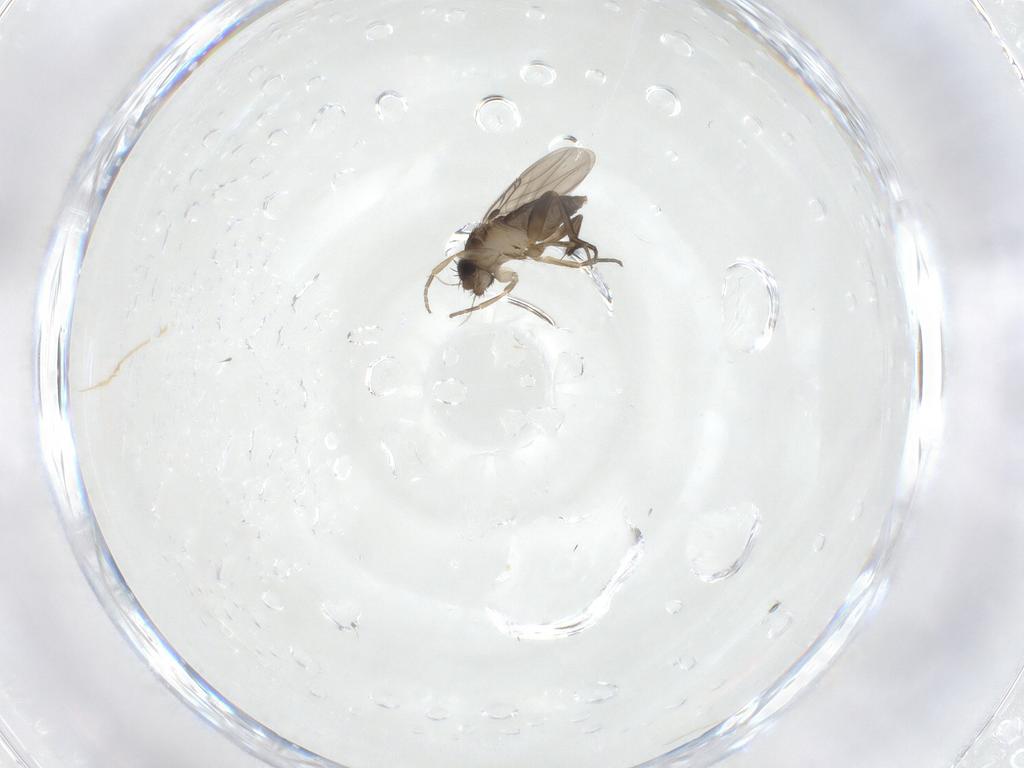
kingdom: Animalia
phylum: Arthropoda
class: Insecta
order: Diptera
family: Phoridae
